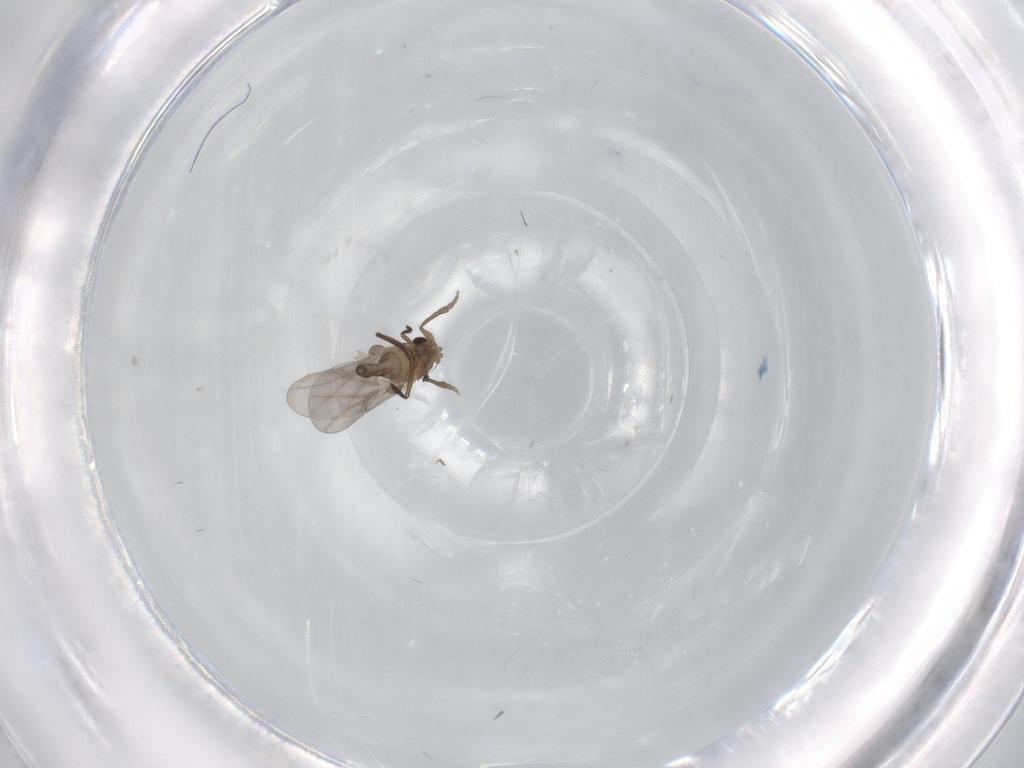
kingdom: Animalia
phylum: Arthropoda
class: Insecta
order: Diptera
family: Phoridae
